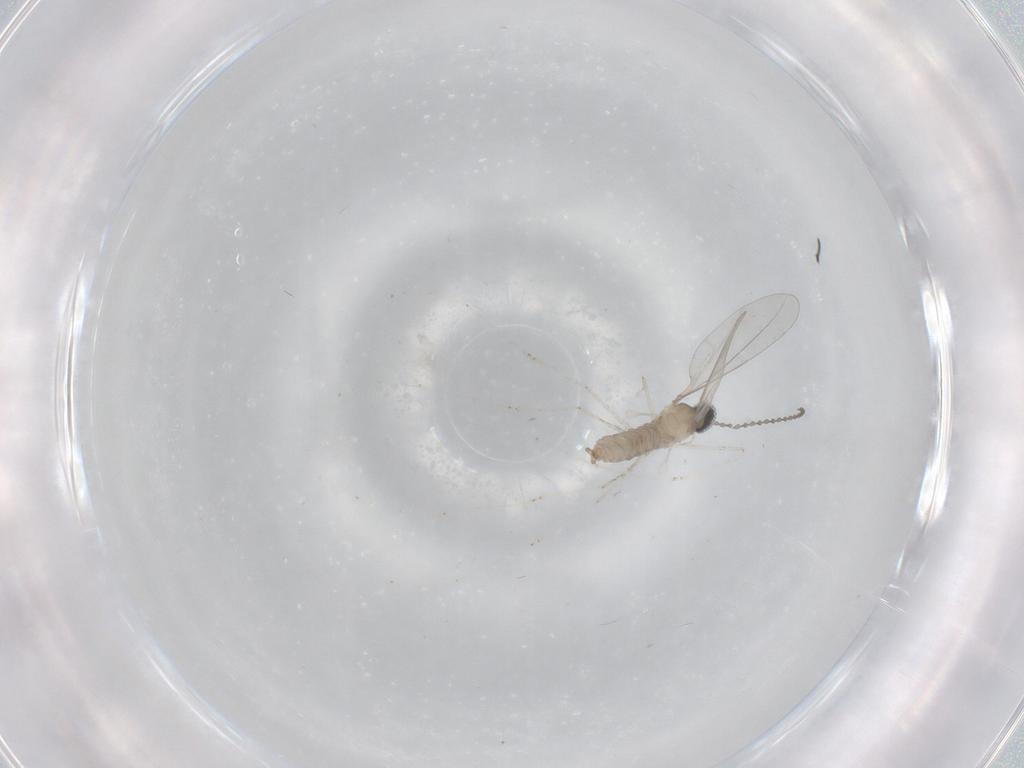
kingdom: Animalia
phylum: Arthropoda
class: Insecta
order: Diptera
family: Cecidomyiidae
